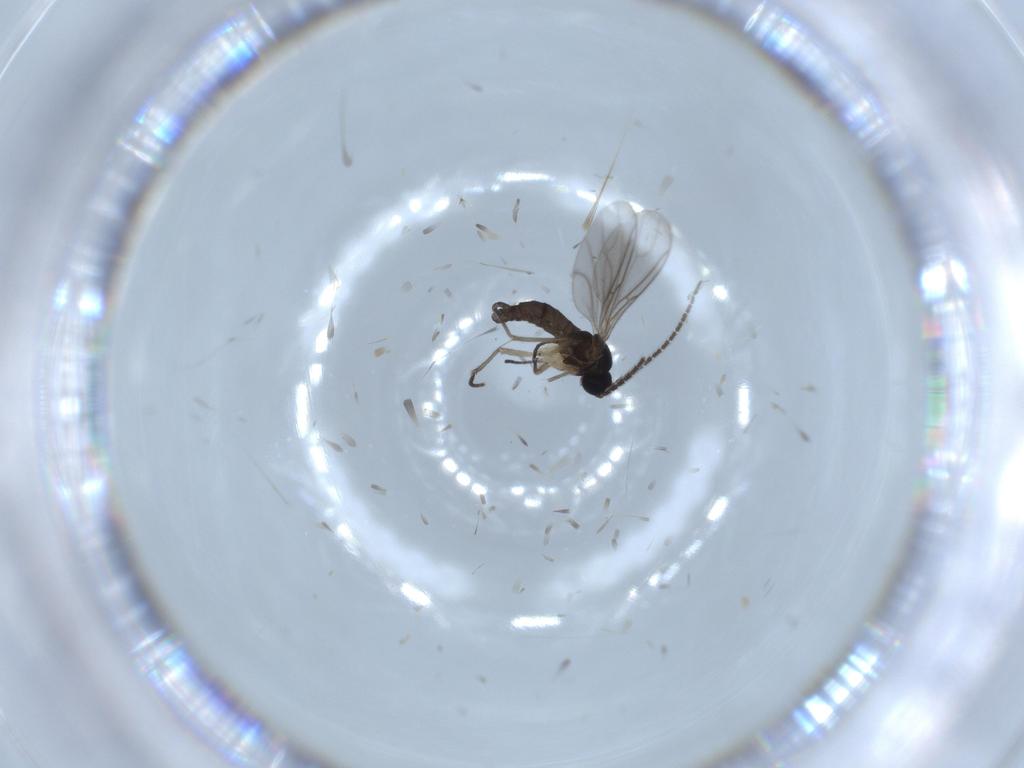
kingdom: Animalia
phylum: Arthropoda
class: Insecta
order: Diptera
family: Sciaridae
